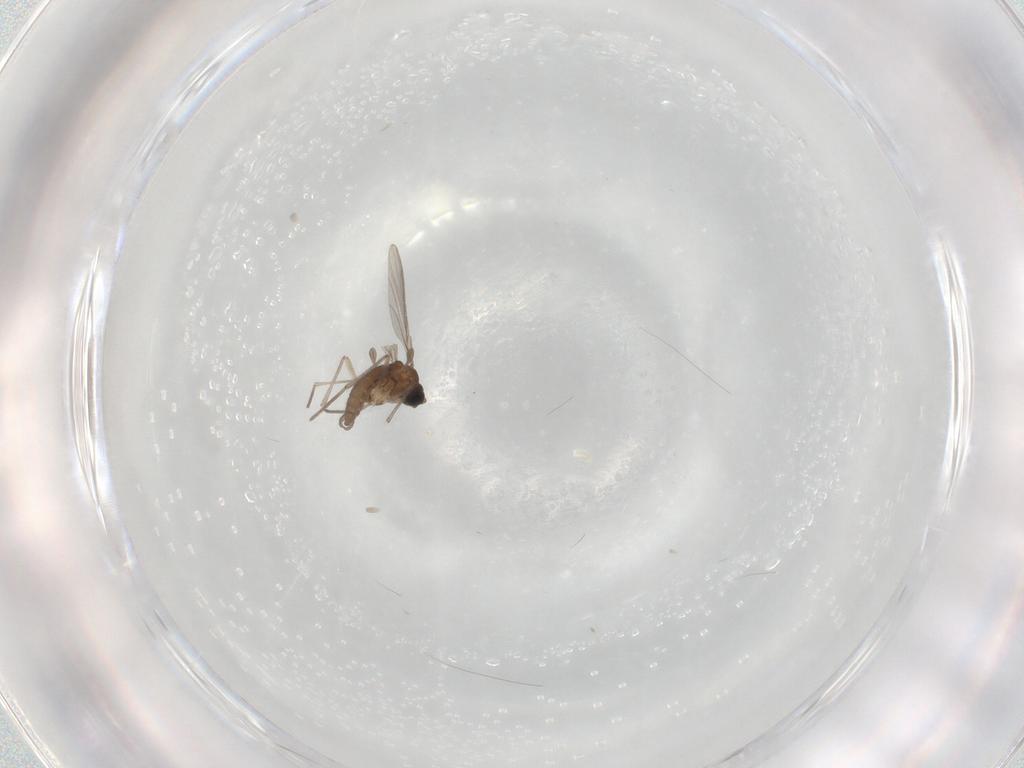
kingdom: Animalia
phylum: Arthropoda
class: Insecta
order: Diptera
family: Sciaridae
